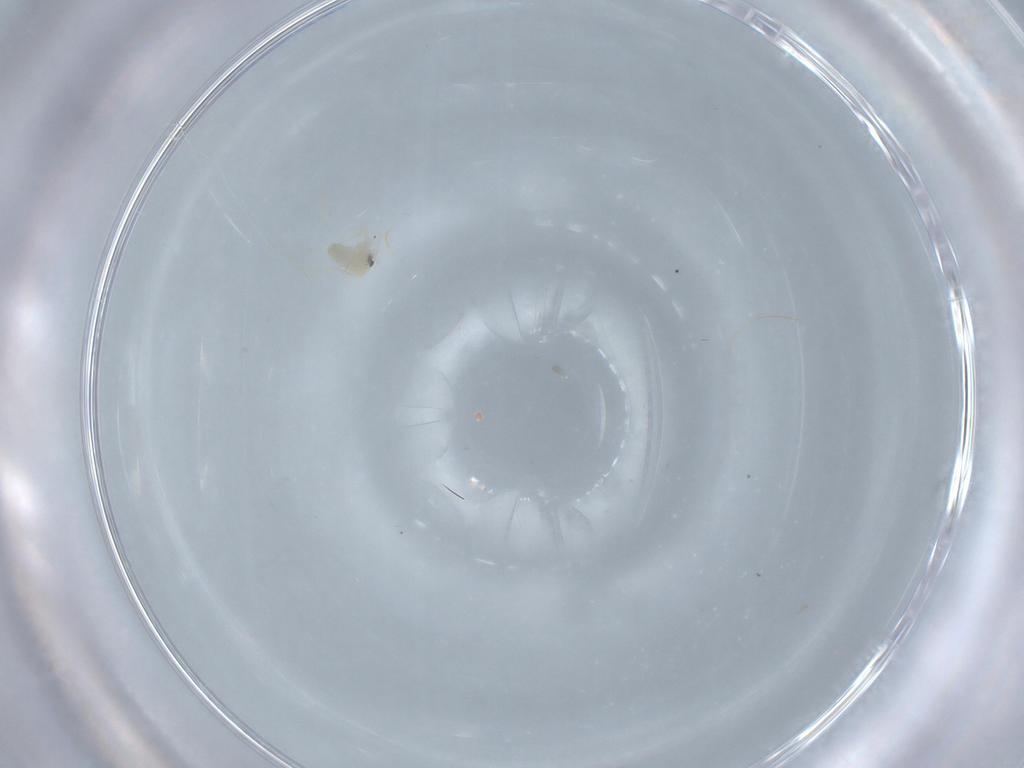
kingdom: Animalia
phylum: Arthropoda
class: Insecta
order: Hemiptera
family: Aleyrodidae
